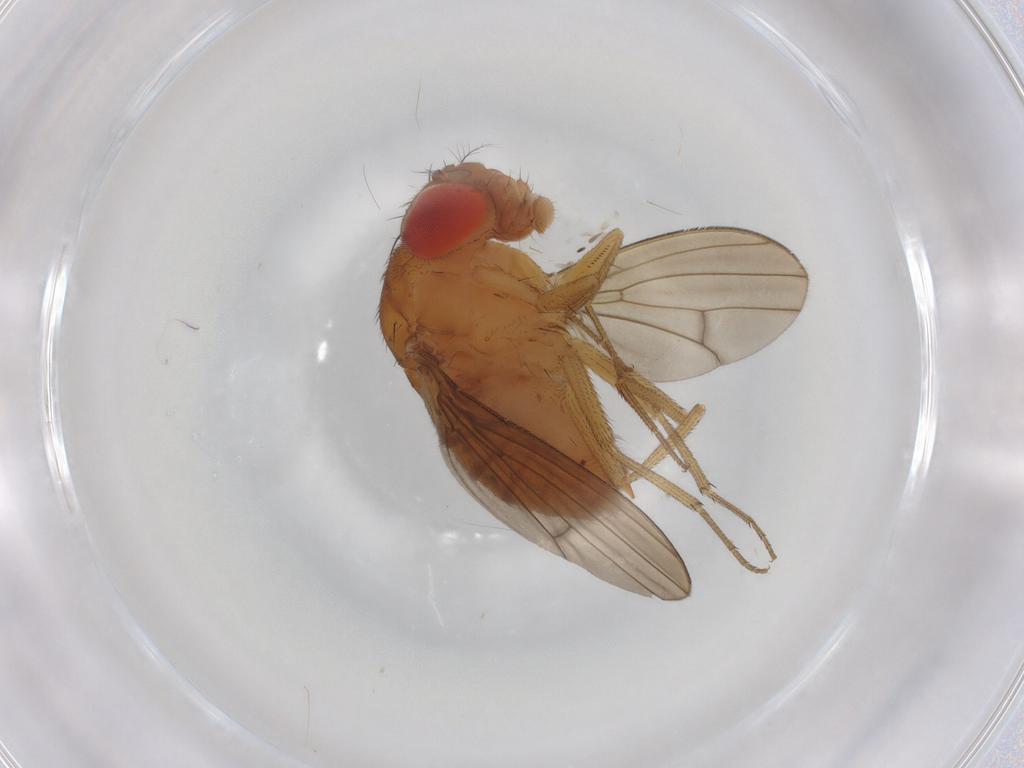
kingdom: Animalia
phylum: Arthropoda
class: Insecta
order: Diptera
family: Drosophilidae
